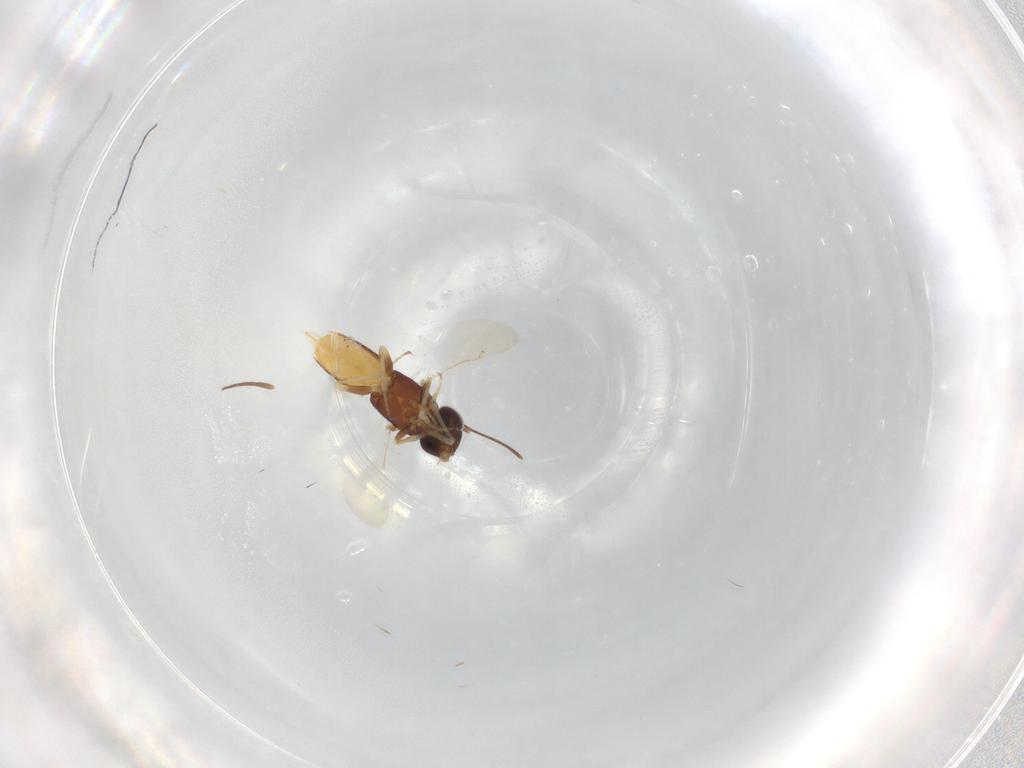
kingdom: Animalia
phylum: Arthropoda
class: Insecta
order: Hymenoptera
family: Encyrtidae
